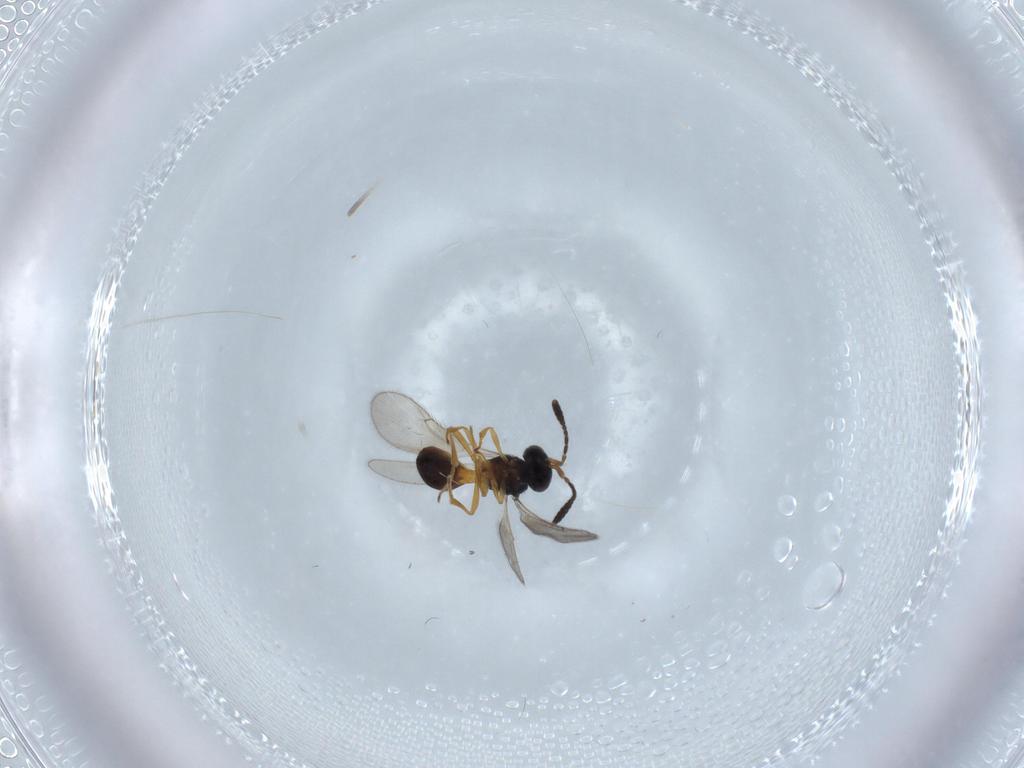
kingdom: Animalia
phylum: Arthropoda
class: Insecta
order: Hymenoptera
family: Scelionidae
